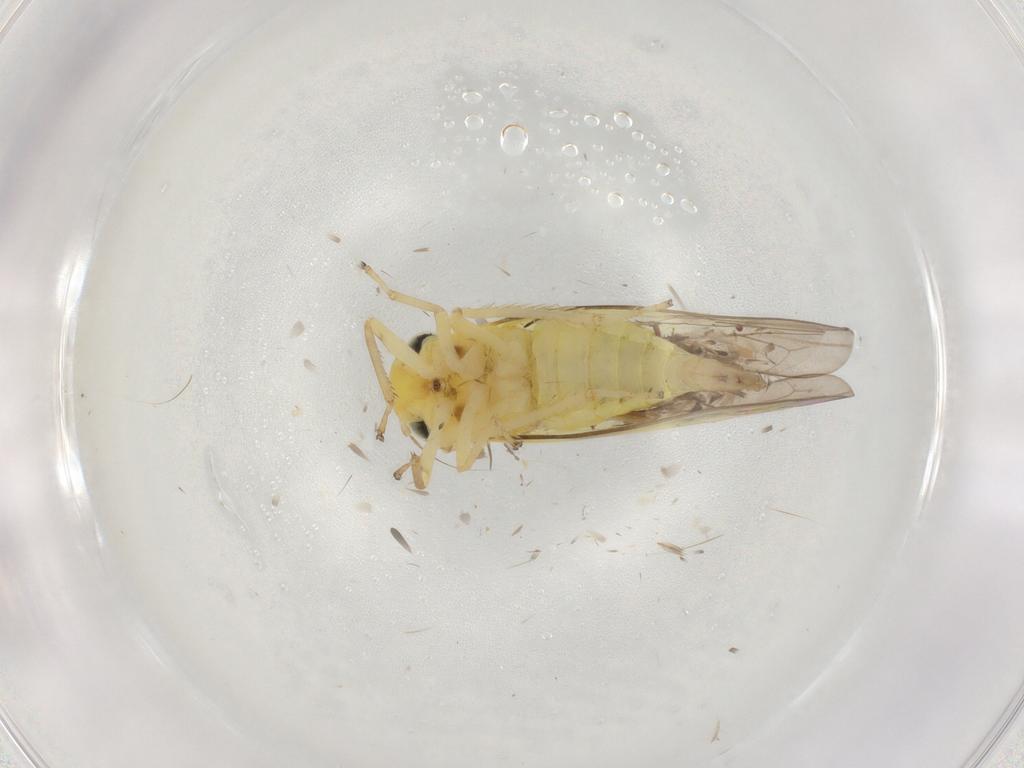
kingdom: Animalia
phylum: Arthropoda
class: Insecta
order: Hemiptera
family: Cicadellidae
